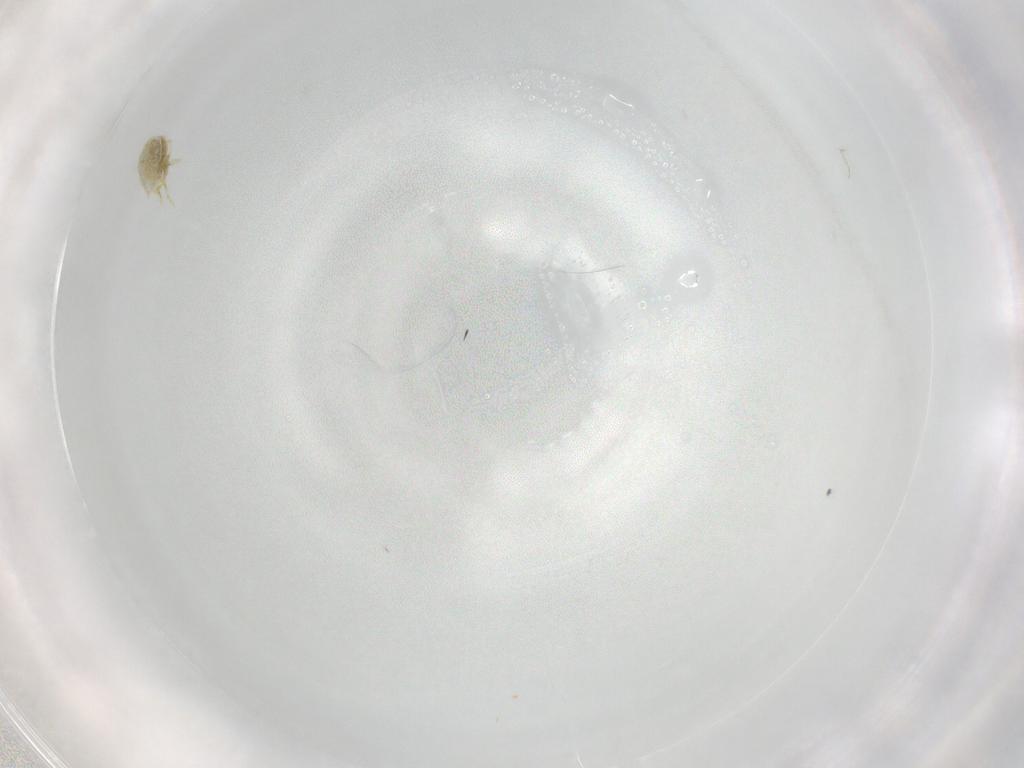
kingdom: Animalia
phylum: Arthropoda
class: Arachnida
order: Trombidiformes
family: Tetranychidae
